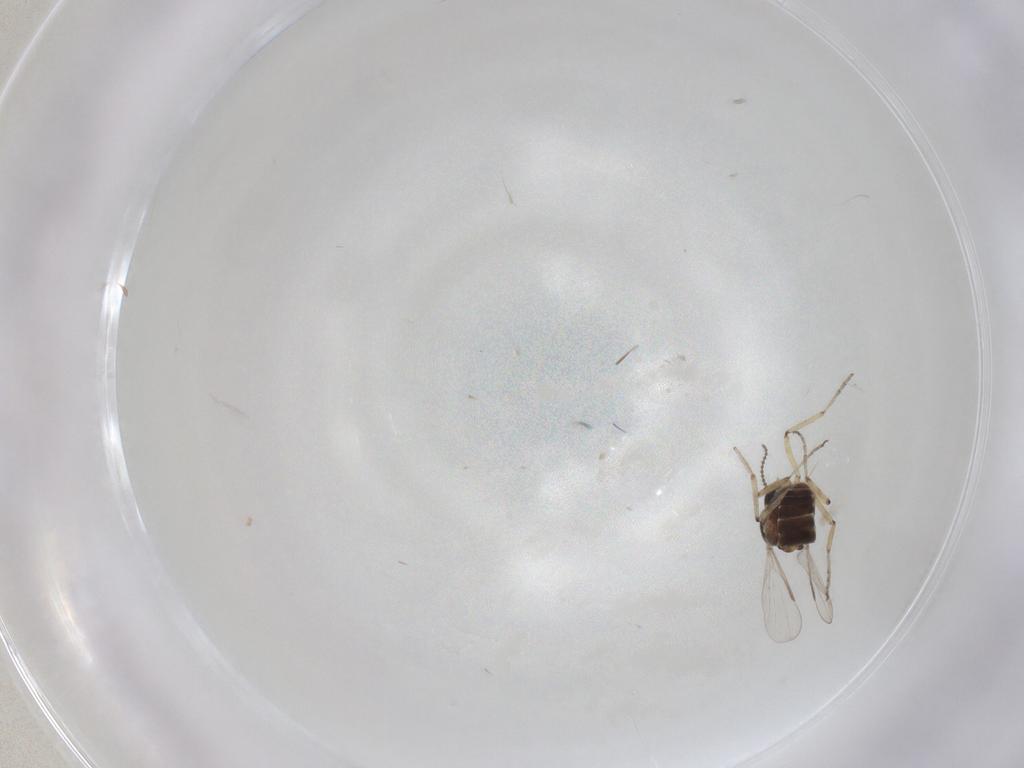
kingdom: Animalia
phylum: Arthropoda
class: Insecta
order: Diptera
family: Ceratopogonidae
